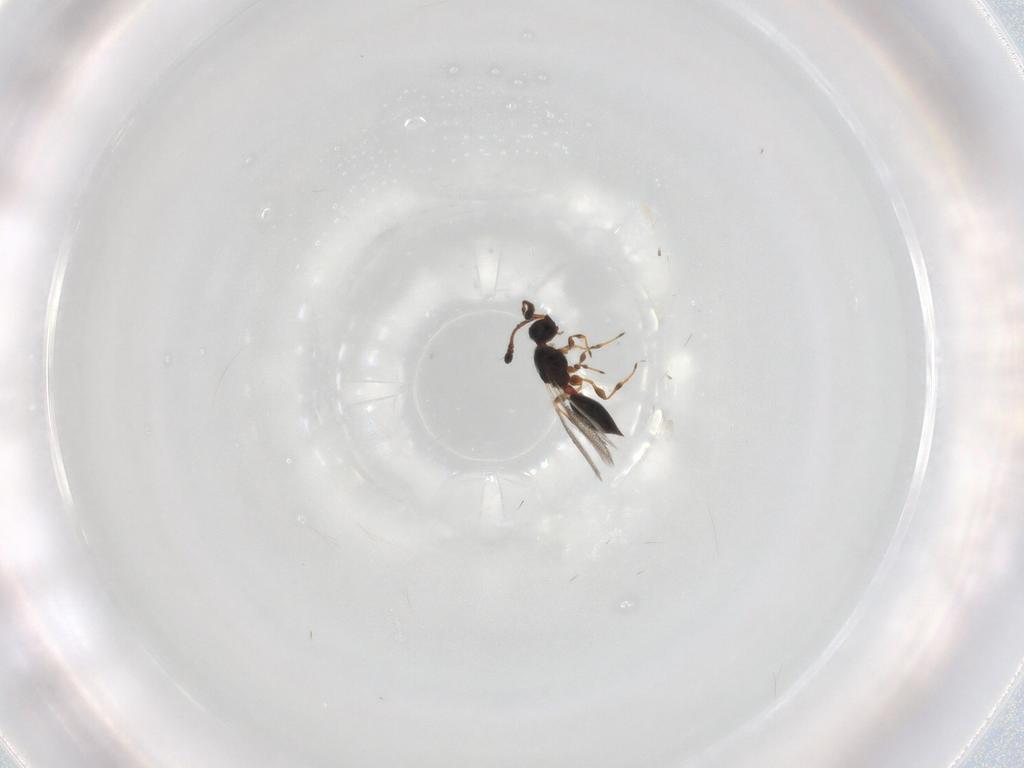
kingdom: Animalia
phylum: Arthropoda
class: Insecta
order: Hymenoptera
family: Diapriidae
